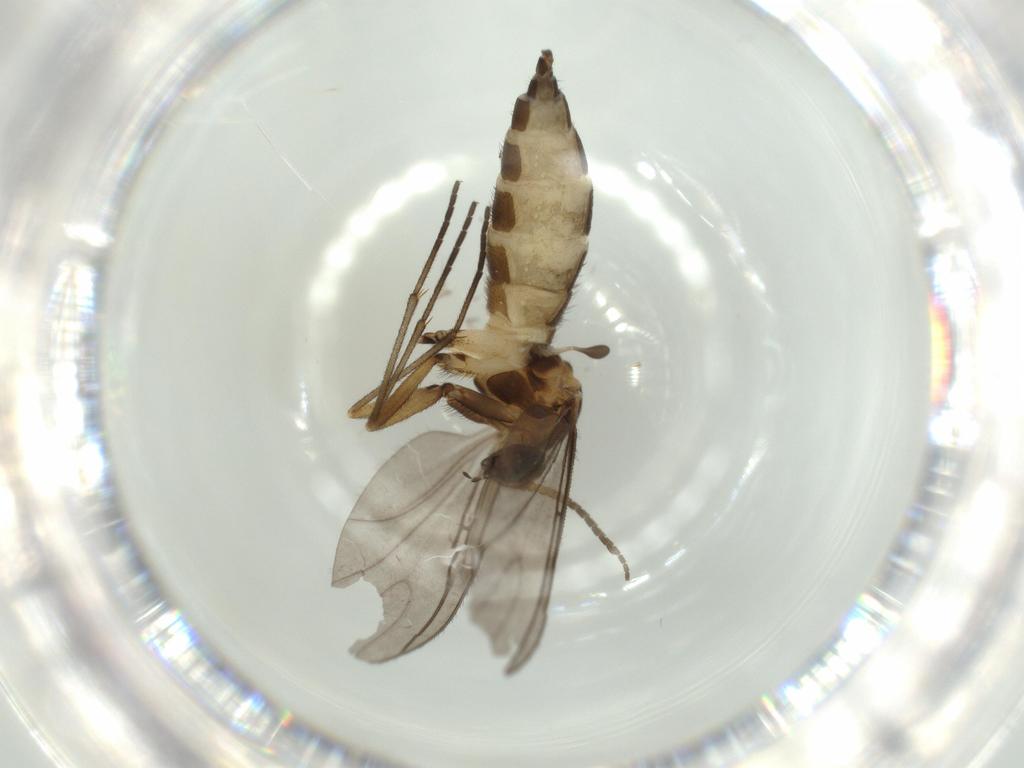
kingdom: Animalia
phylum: Arthropoda
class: Insecta
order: Diptera
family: Sciaridae
